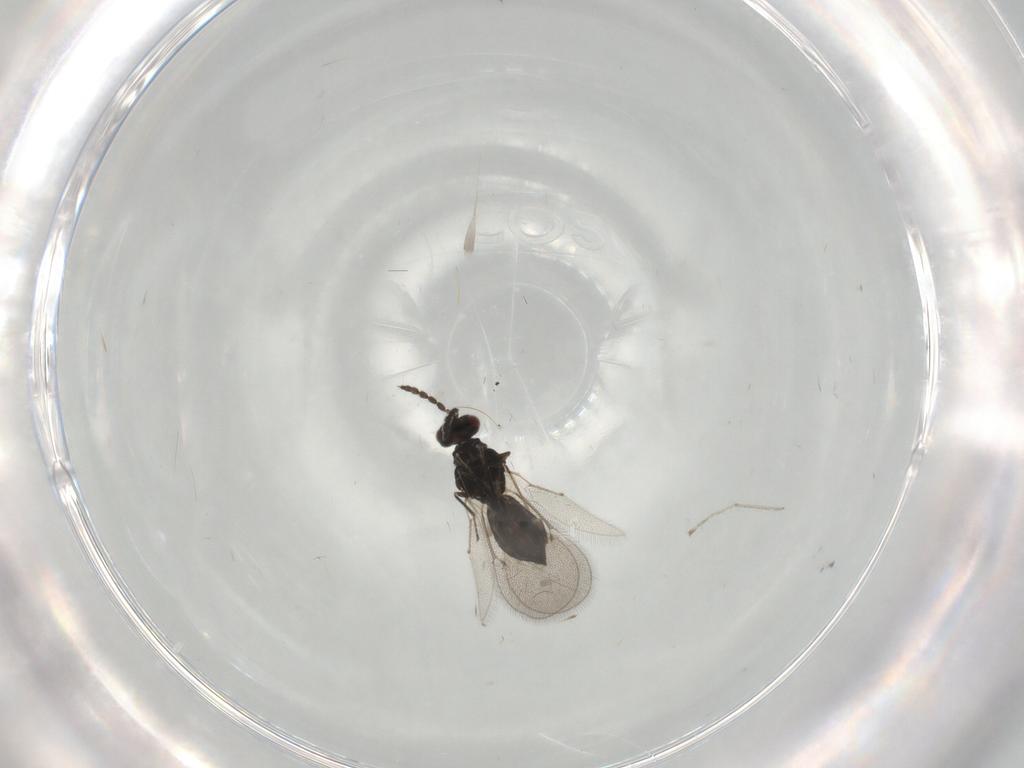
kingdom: Animalia
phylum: Arthropoda
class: Insecta
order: Hymenoptera
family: Eulophidae
